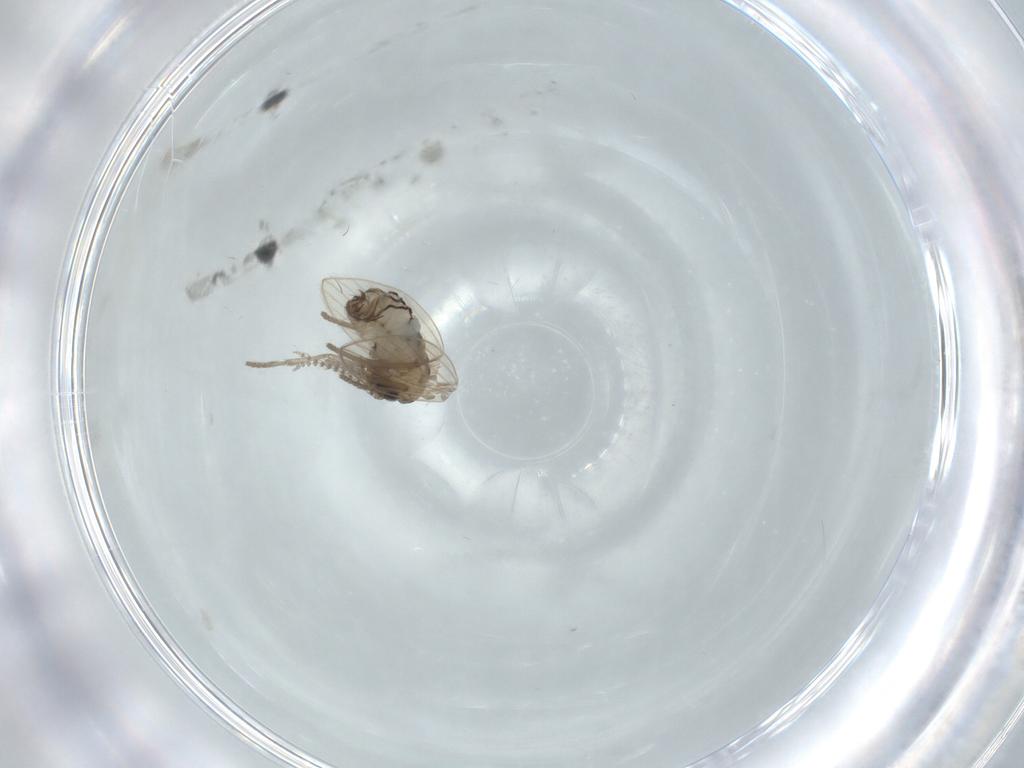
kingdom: Animalia
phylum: Arthropoda
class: Insecta
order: Diptera
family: Psychodidae
